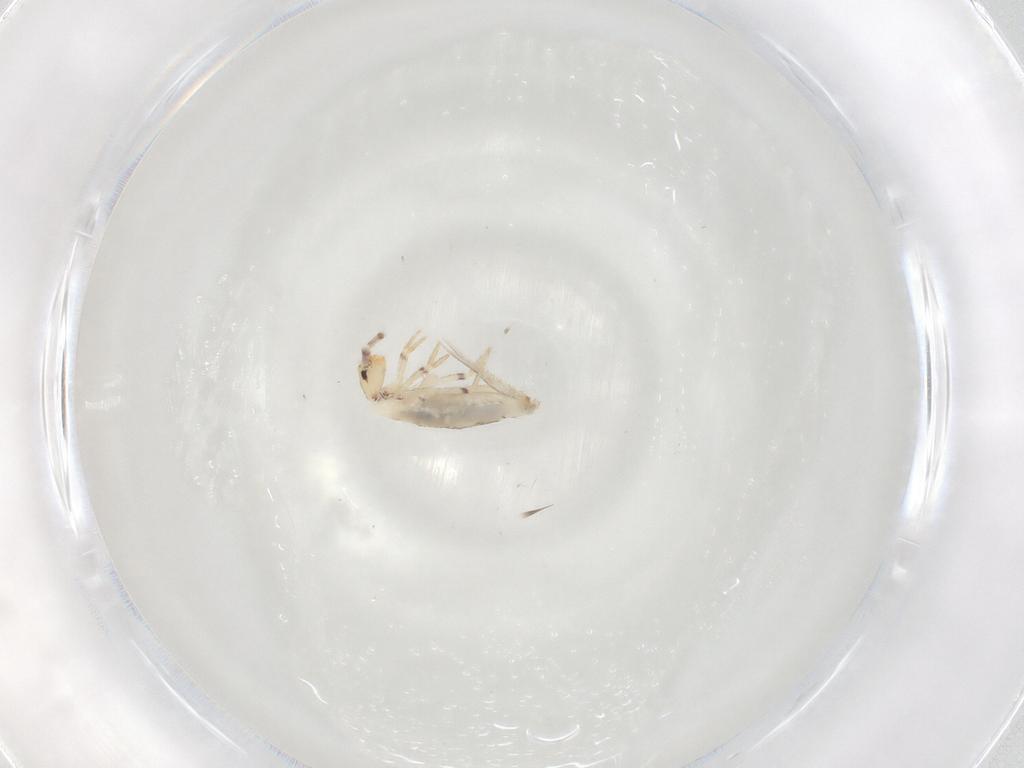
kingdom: Animalia
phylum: Arthropoda
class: Collembola
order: Entomobryomorpha
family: Entomobryidae
